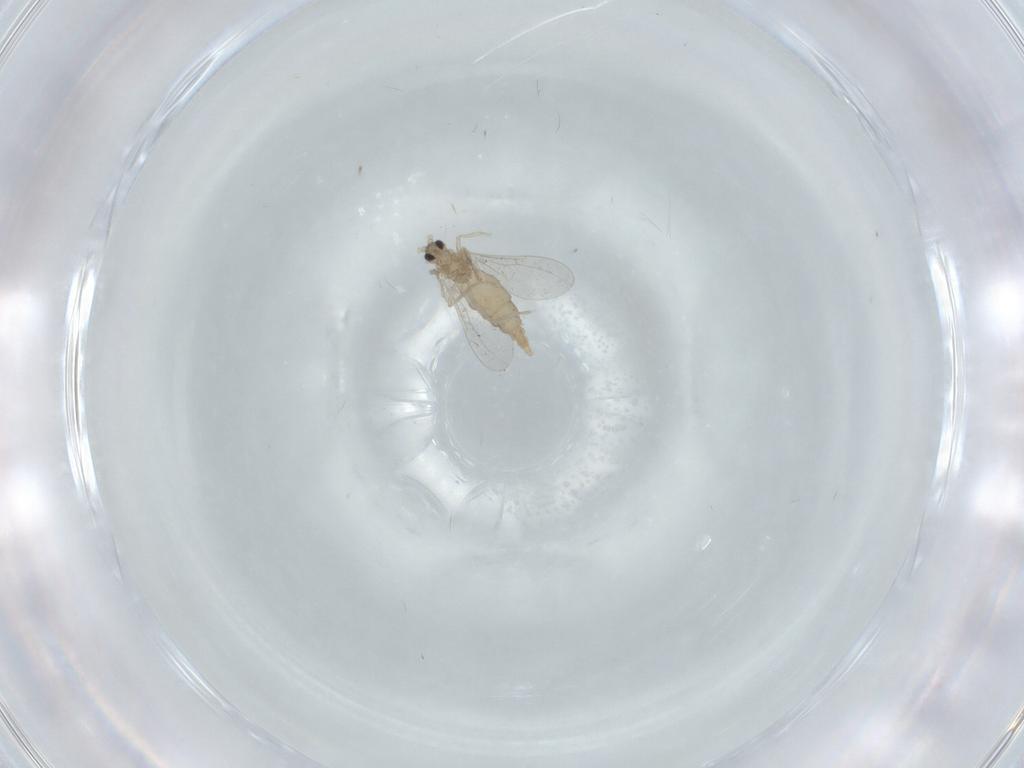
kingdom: Animalia
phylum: Arthropoda
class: Insecta
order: Diptera
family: Cecidomyiidae
